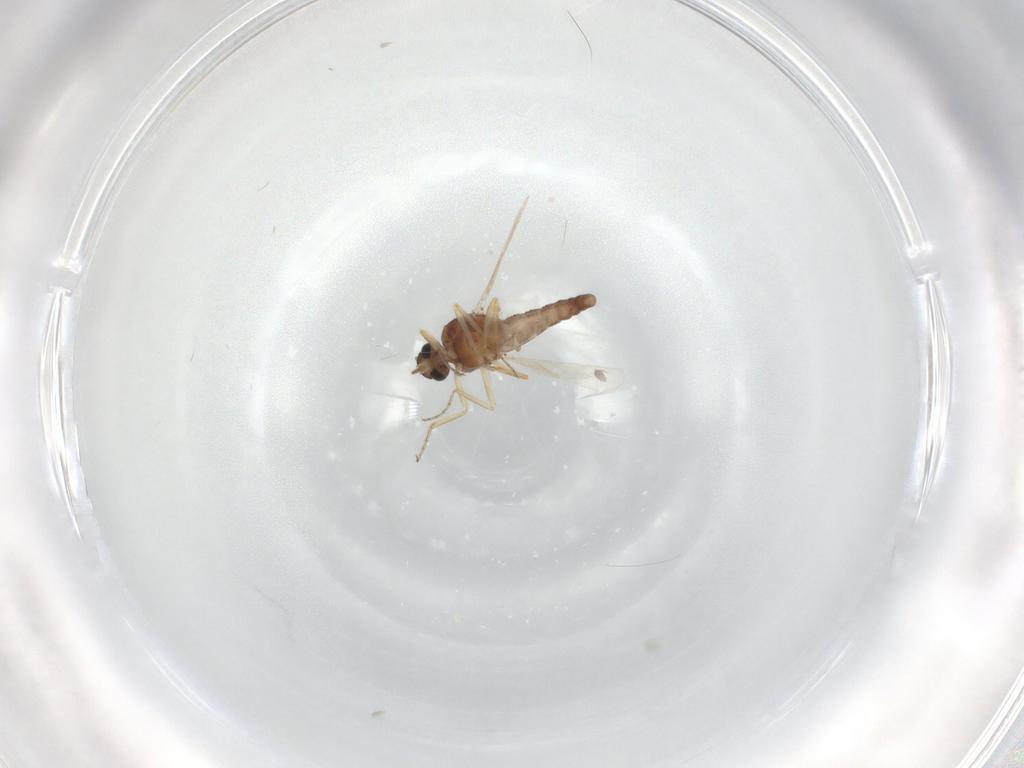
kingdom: Animalia
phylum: Arthropoda
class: Insecta
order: Diptera
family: Ceratopogonidae
